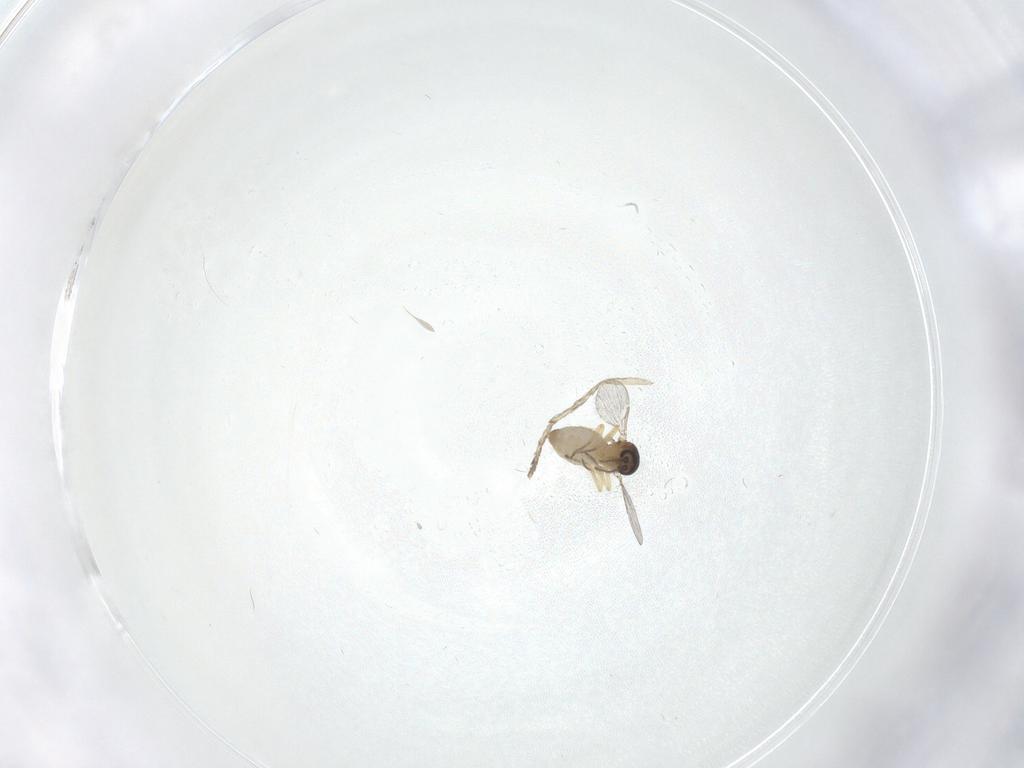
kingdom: Animalia
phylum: Arthropoda
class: Insecta
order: Diptera
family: Ceratopogonidae
